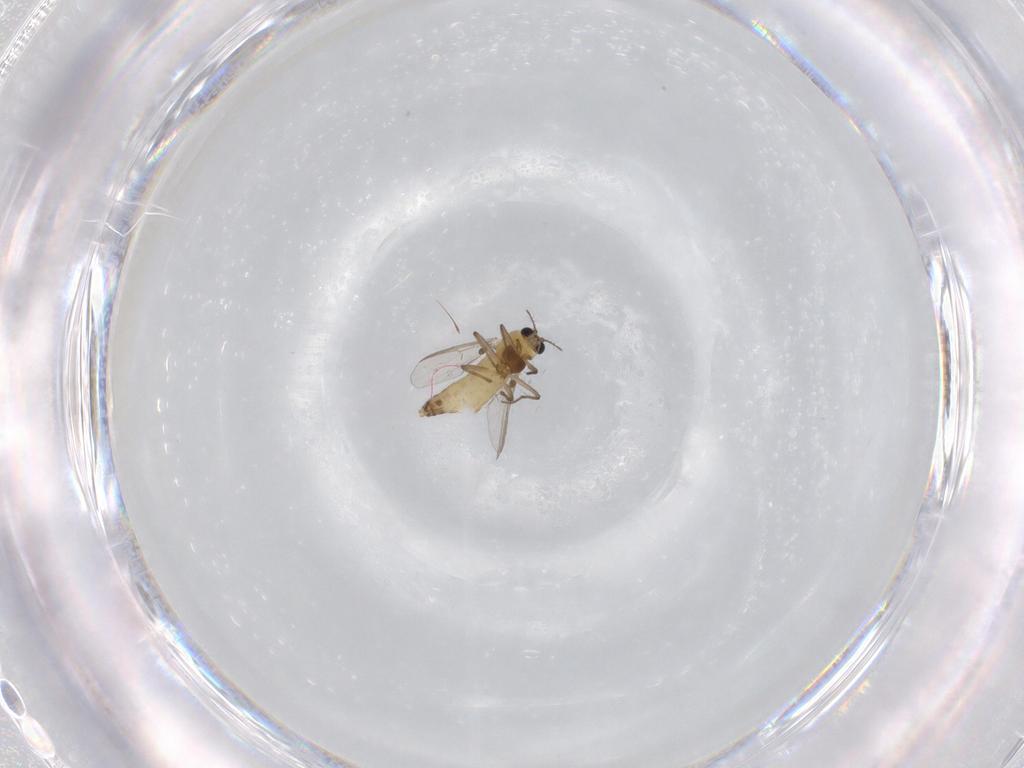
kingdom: Animalia
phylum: Arthropoda
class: Insecta
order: Diptera
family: Chironomidae
